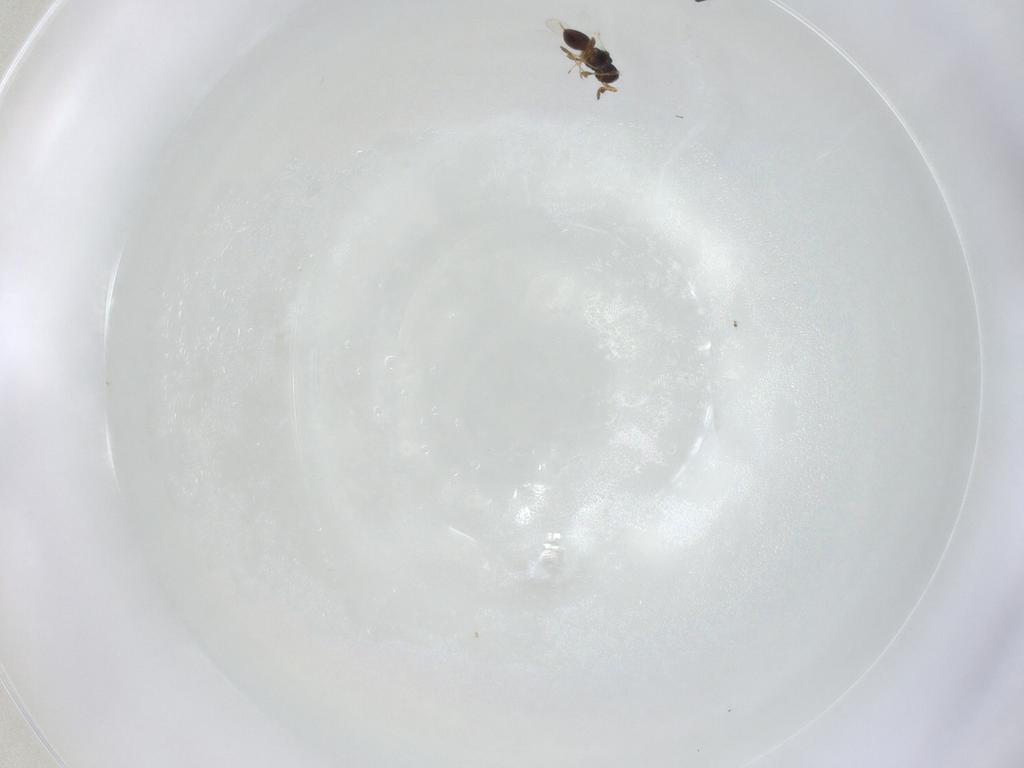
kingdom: Animalia
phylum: Arthropoda
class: Insecta
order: Hymenoptera
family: Platygastridae
